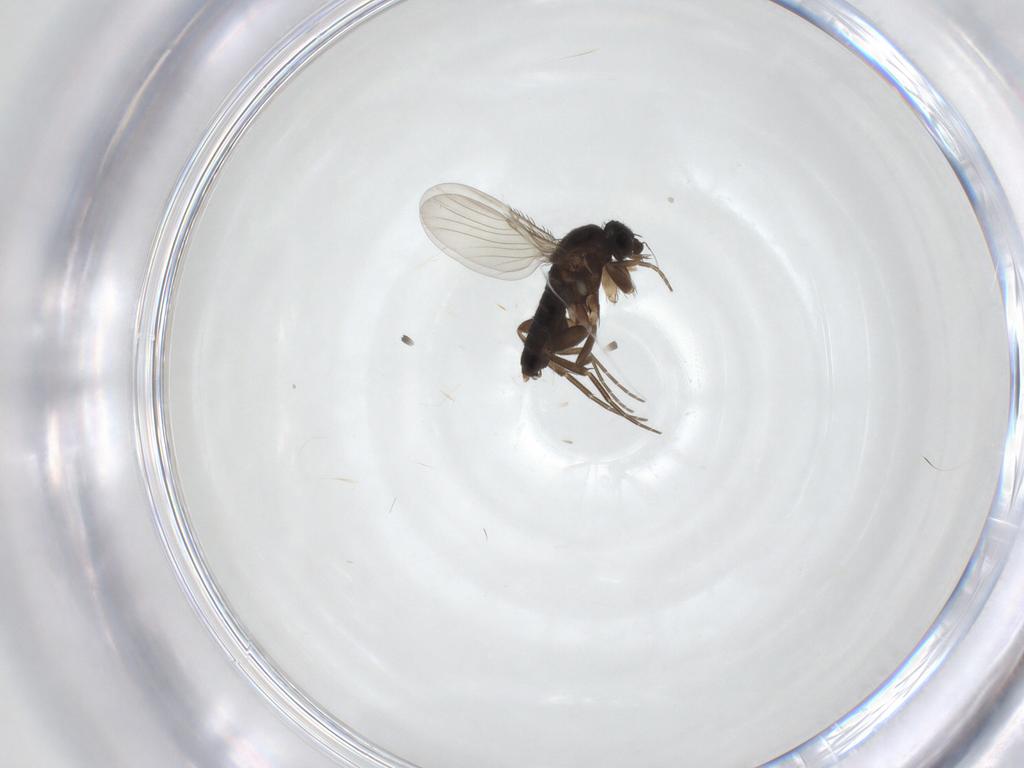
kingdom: Animalia
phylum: Arthropoda
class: Insecta
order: Diptera
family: Phoridae
